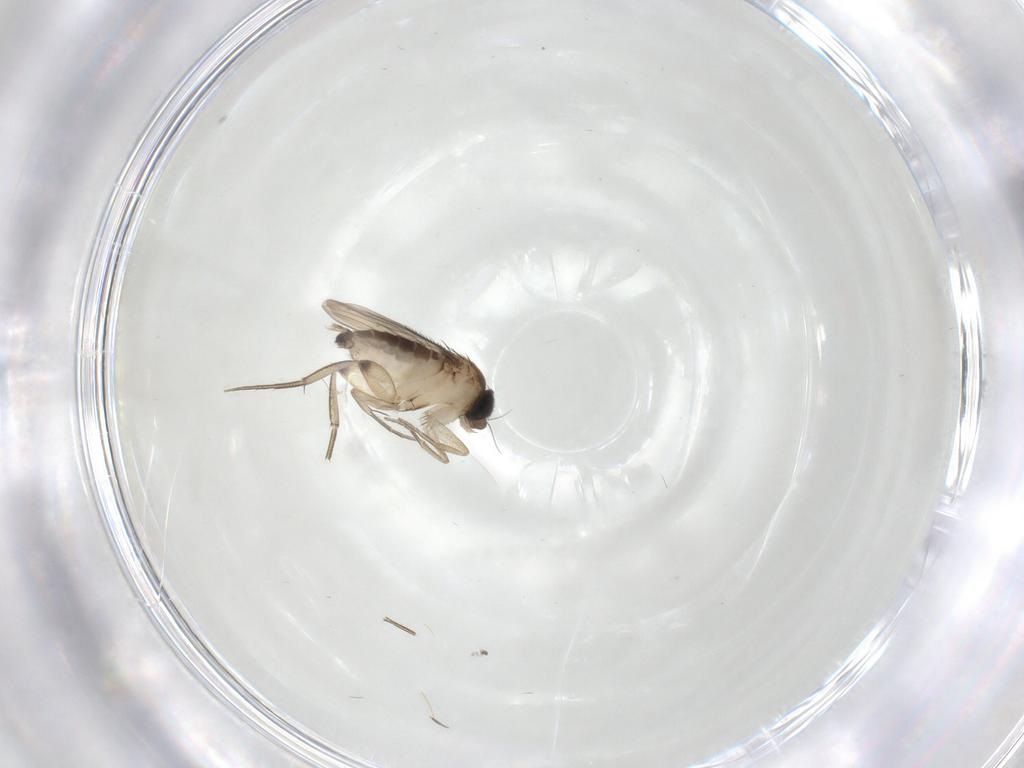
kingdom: Animalia
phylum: Arthropoda
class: Insecta
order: Diptera
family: Phoridae
